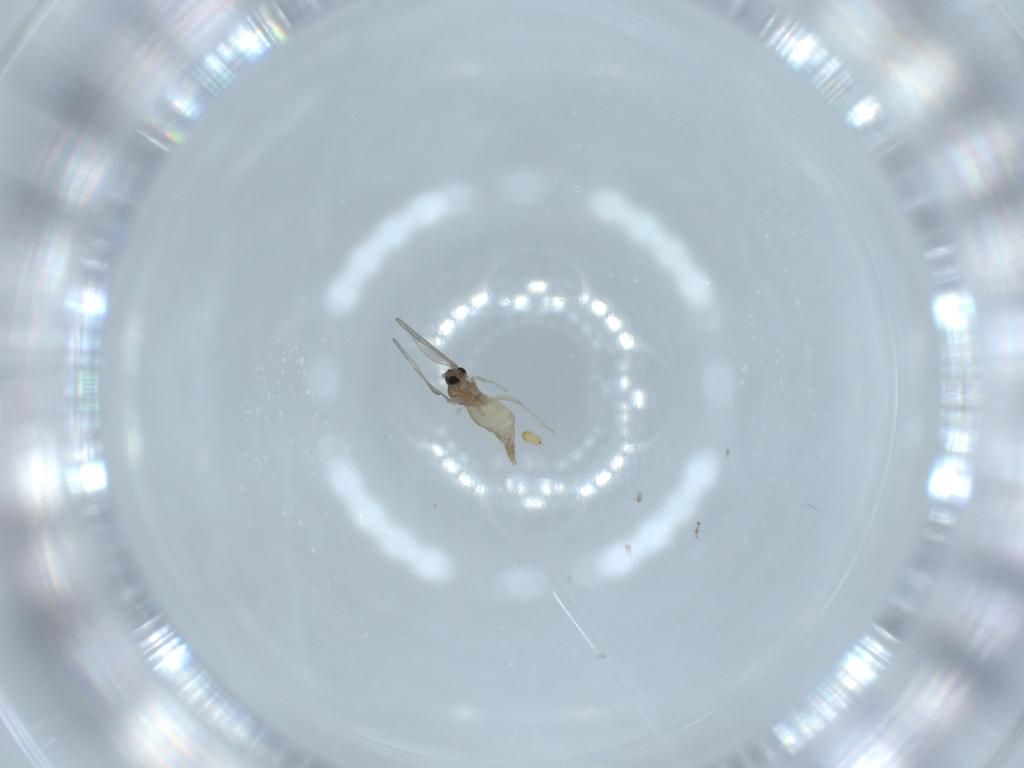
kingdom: Animalia
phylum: Arthropoda
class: Insecta
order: Diptera
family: Cecidomyiidae
